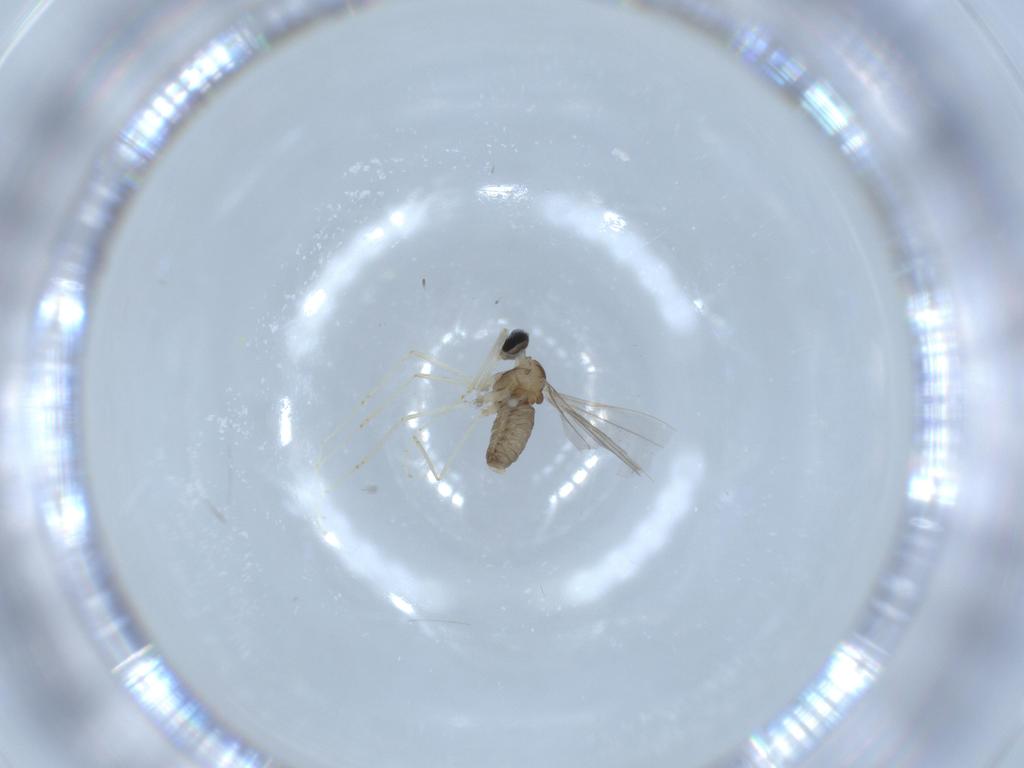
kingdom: Animalia
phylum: Arthropoda
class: Insecta
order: Diptera
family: Ceratopogonidae
